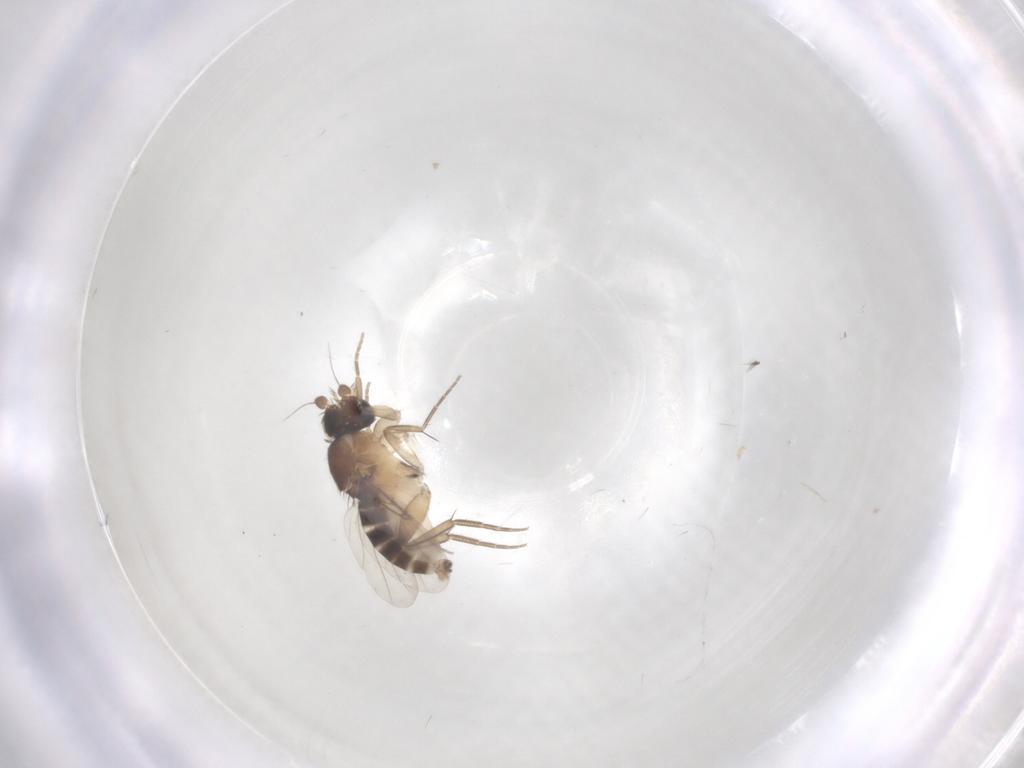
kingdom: Animalia
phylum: Arthropoda
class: Insecta
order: Diptera
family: Phoridae
